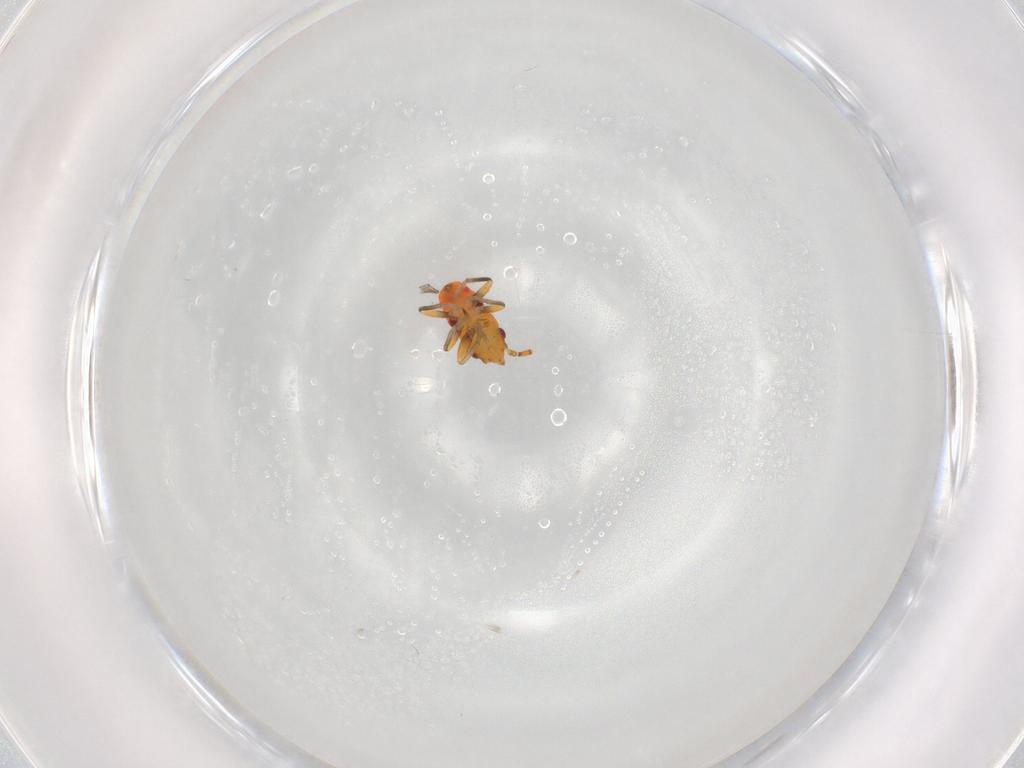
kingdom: Animalia
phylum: Arthropoda
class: Insecta
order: Hemiptera
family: Rhyparochromidae
